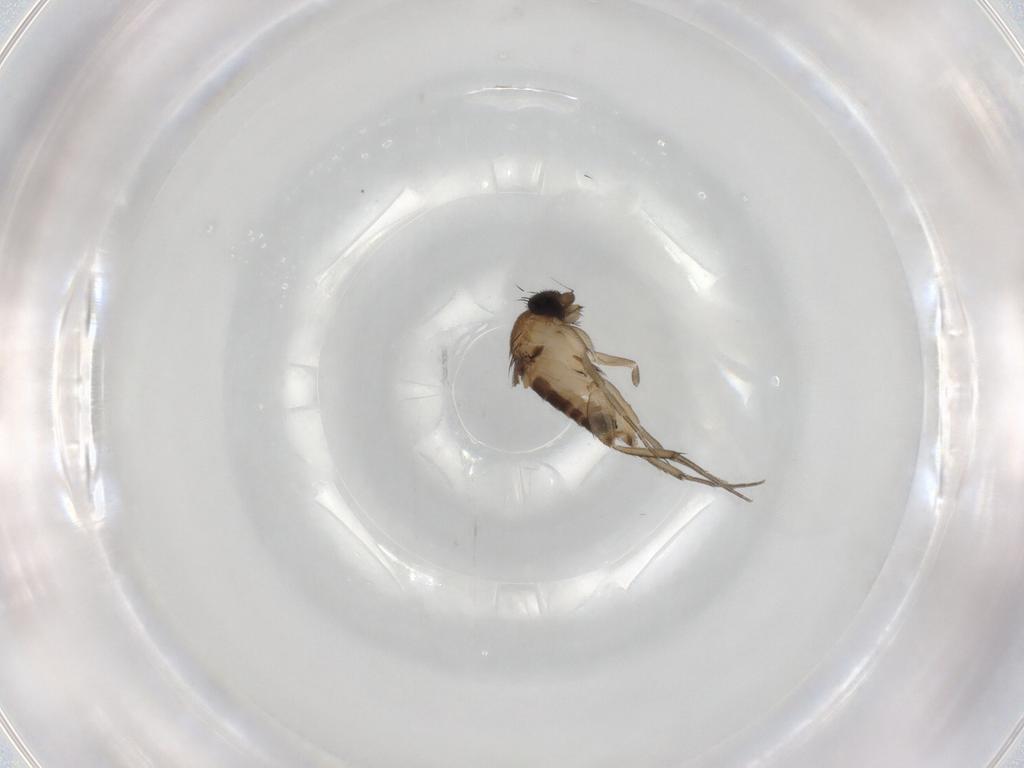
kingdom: Animalia
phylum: Arthropoda
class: Insecta
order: Diptera
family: Phoridae
